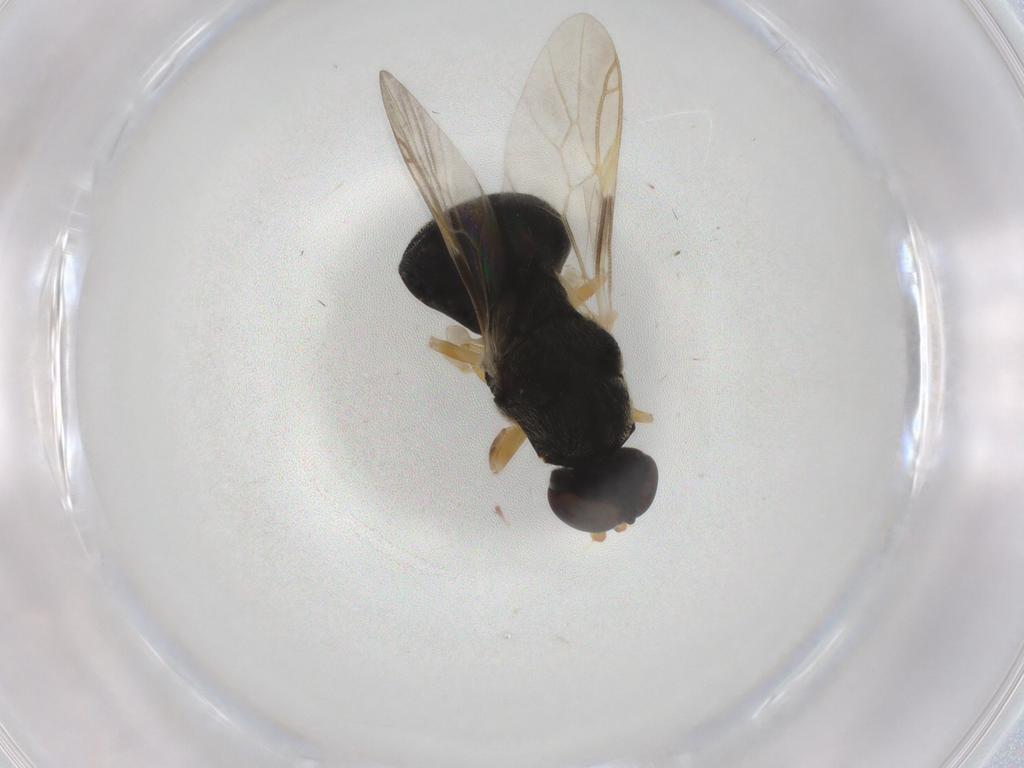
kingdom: Animalia
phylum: Arthropoda
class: Insecta
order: Diptera
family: Stratiomyidae
